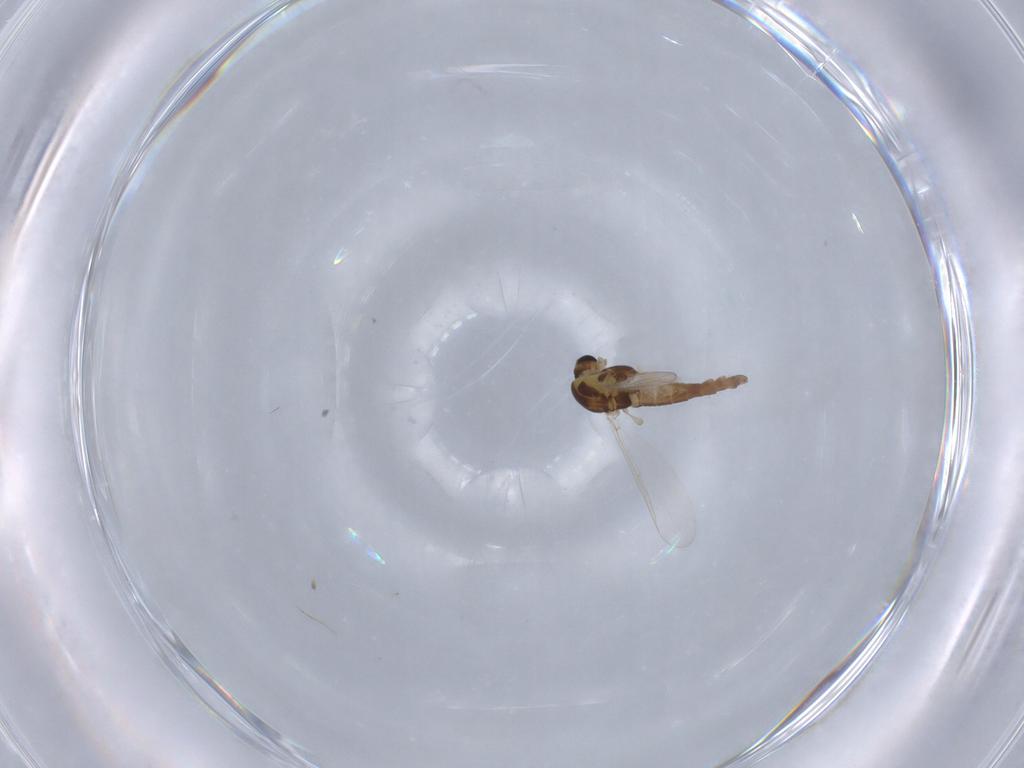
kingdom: Animalia
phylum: Arthropoda
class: Insecta
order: Diptera
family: Chironomidae
